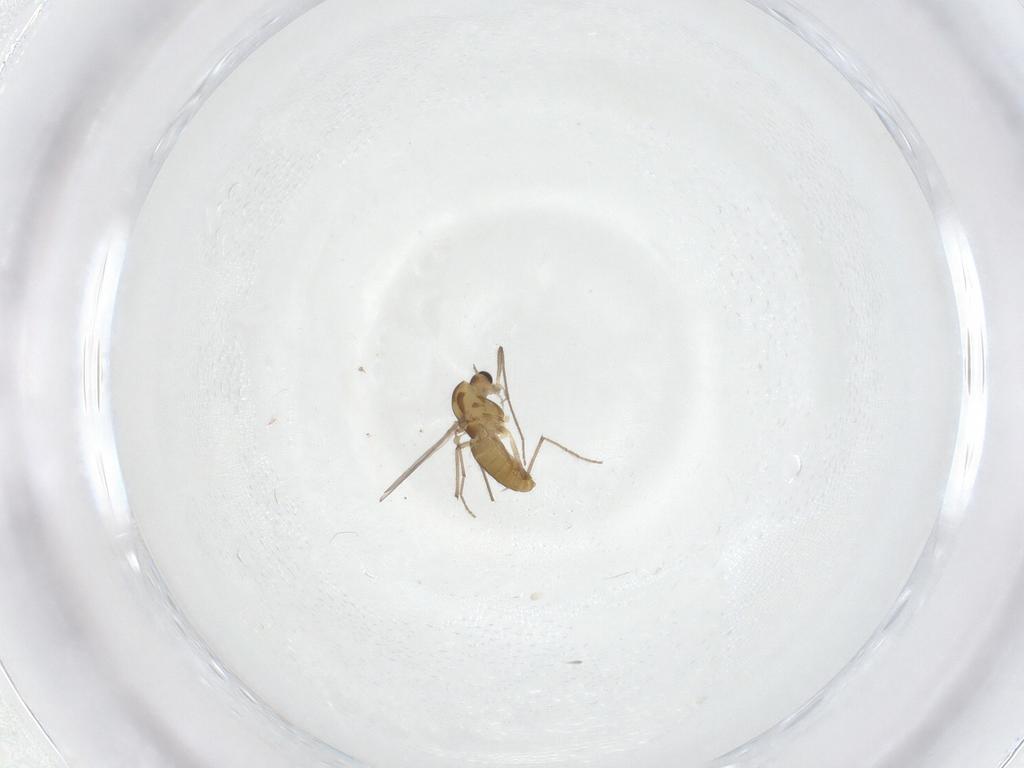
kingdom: Animalia
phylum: Arthropoda
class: Insecta
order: Diptera
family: Chironomidae
